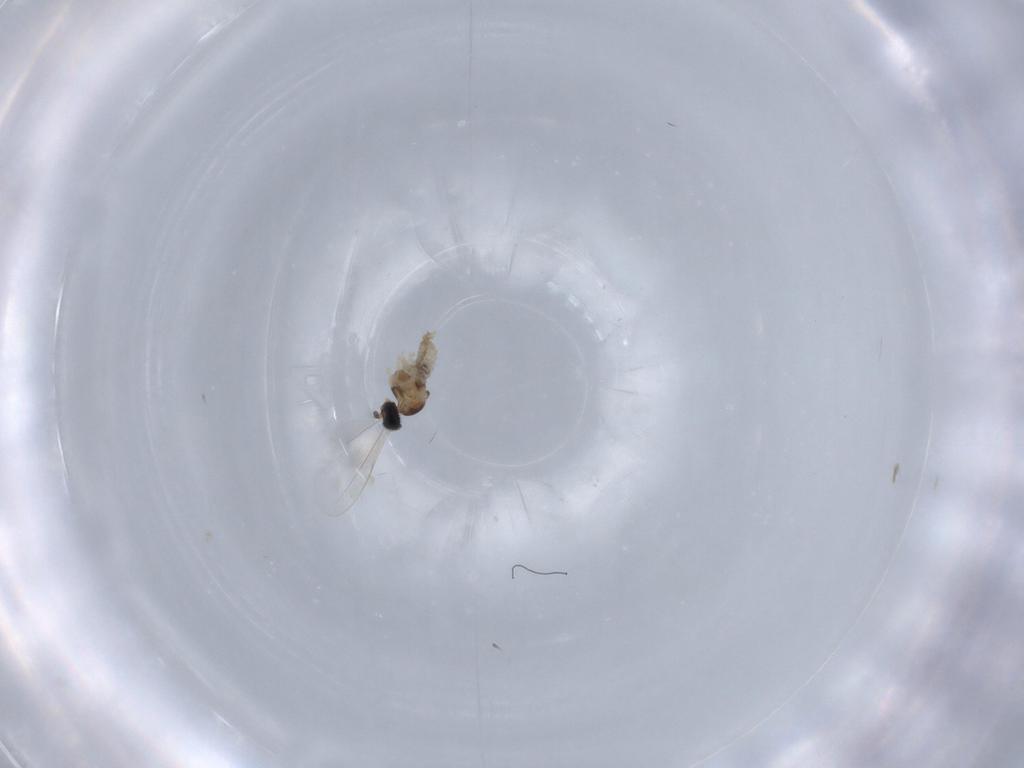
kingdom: Animalia
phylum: Arthropoda
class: Insecta
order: Diptera
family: Cecidomyiidae
